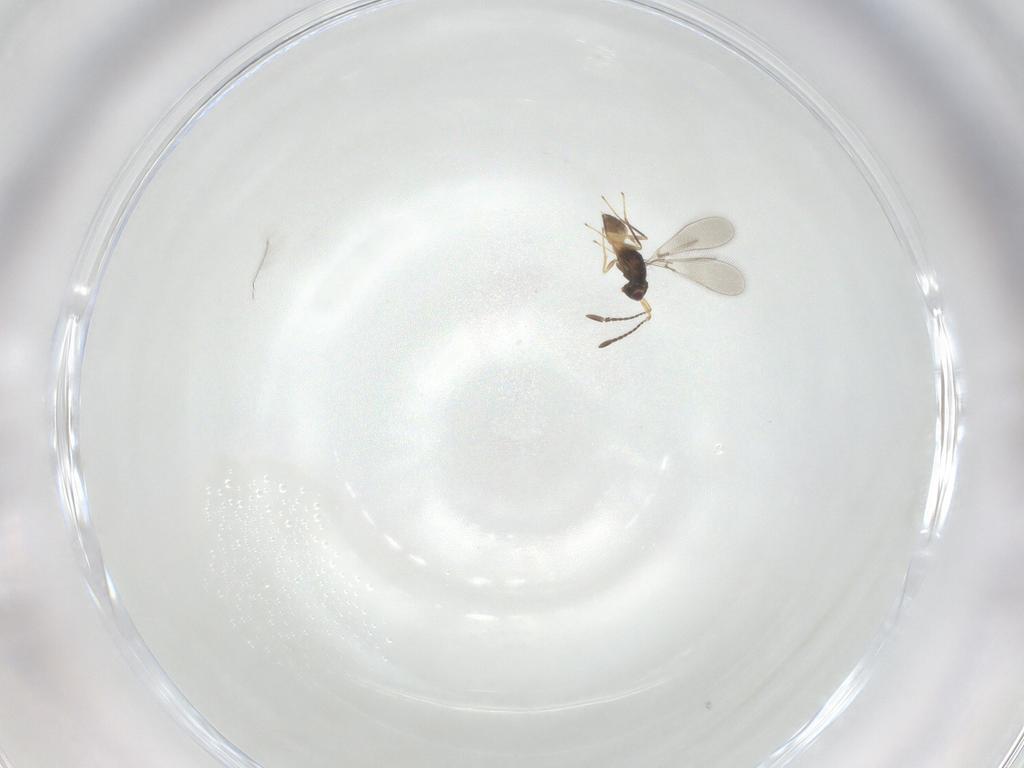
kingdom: Animalia
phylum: Arthropoda
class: Insecta
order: Hymenoptera
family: Mymaridae
